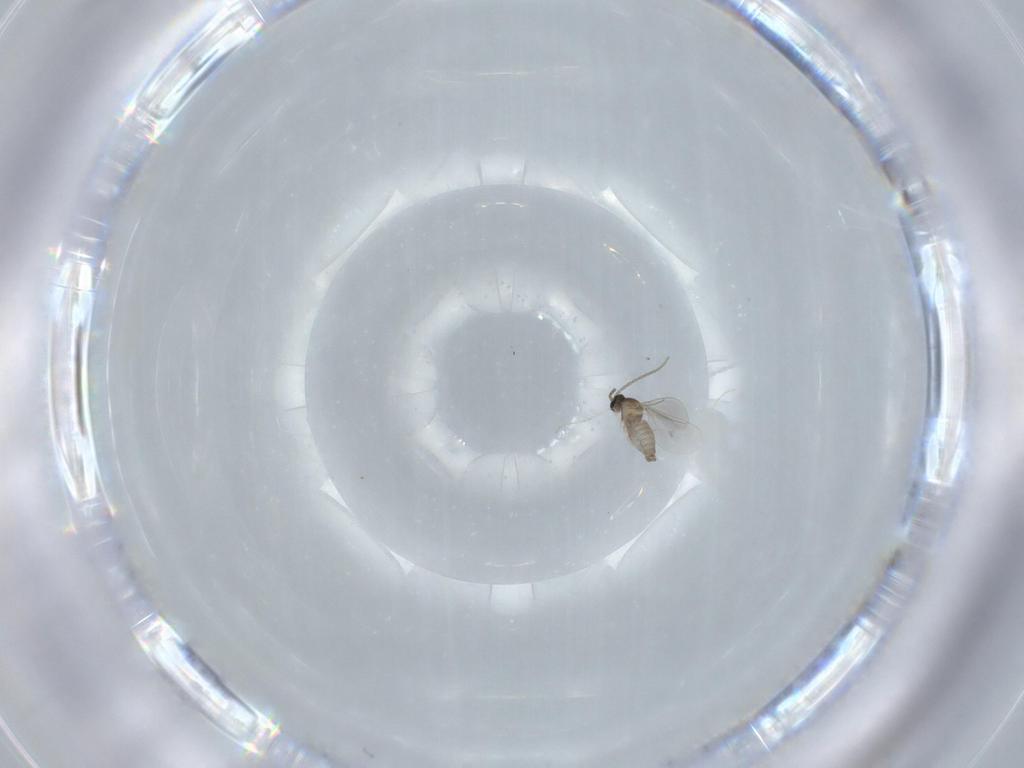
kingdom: Animalia
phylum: Arthropoda
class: Insecta
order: Diptera
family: Cecidomyiidae
